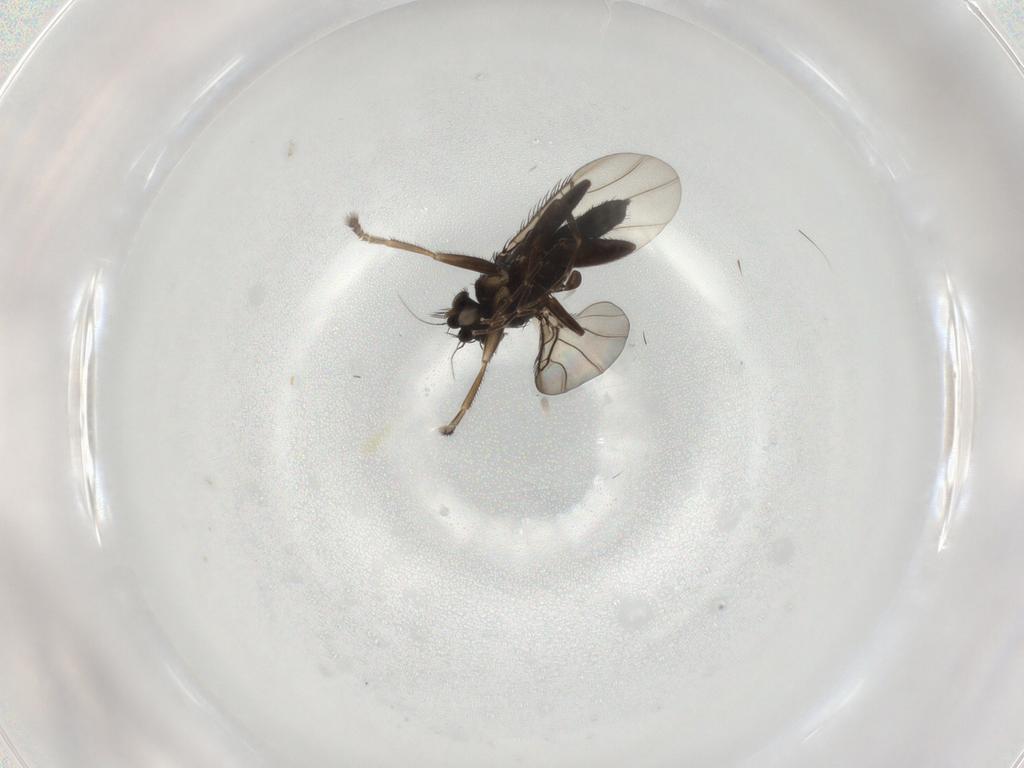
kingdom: Animalia
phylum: Arthropoda
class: Insecta
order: Diptera
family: Phoridae
